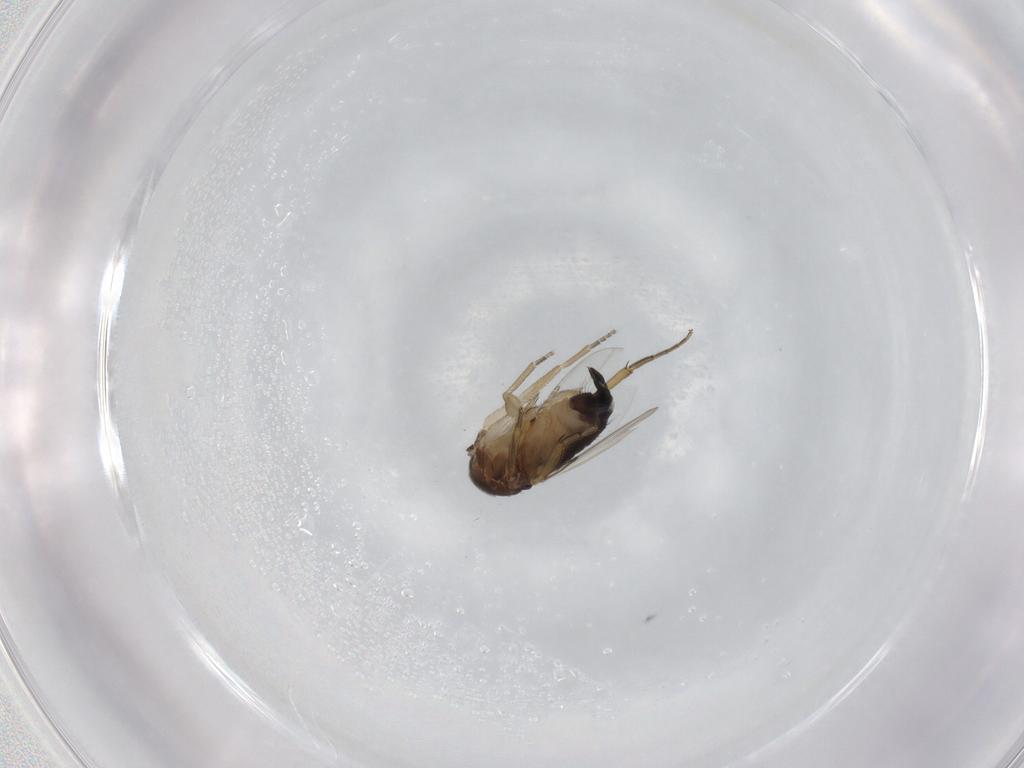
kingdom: Animalia
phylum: Arthropoda
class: Insecta
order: Diptera
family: Phoridae
